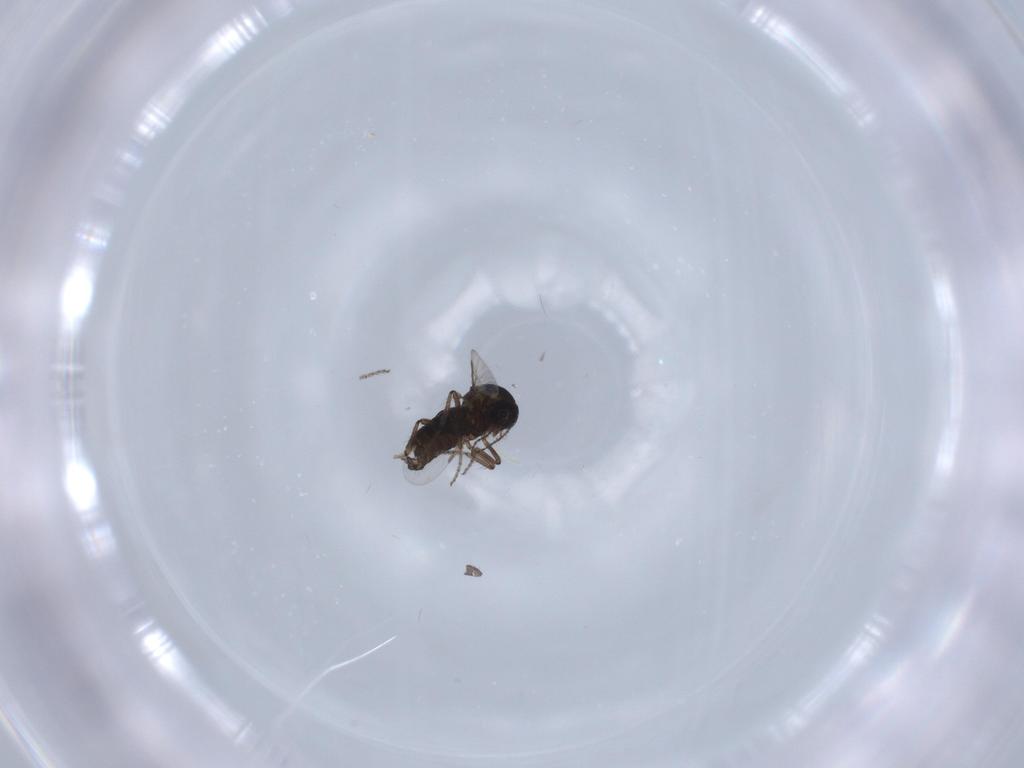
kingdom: Animalia
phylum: Arthropoda
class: Insecta
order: Diptera
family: Ceratopogonidae
